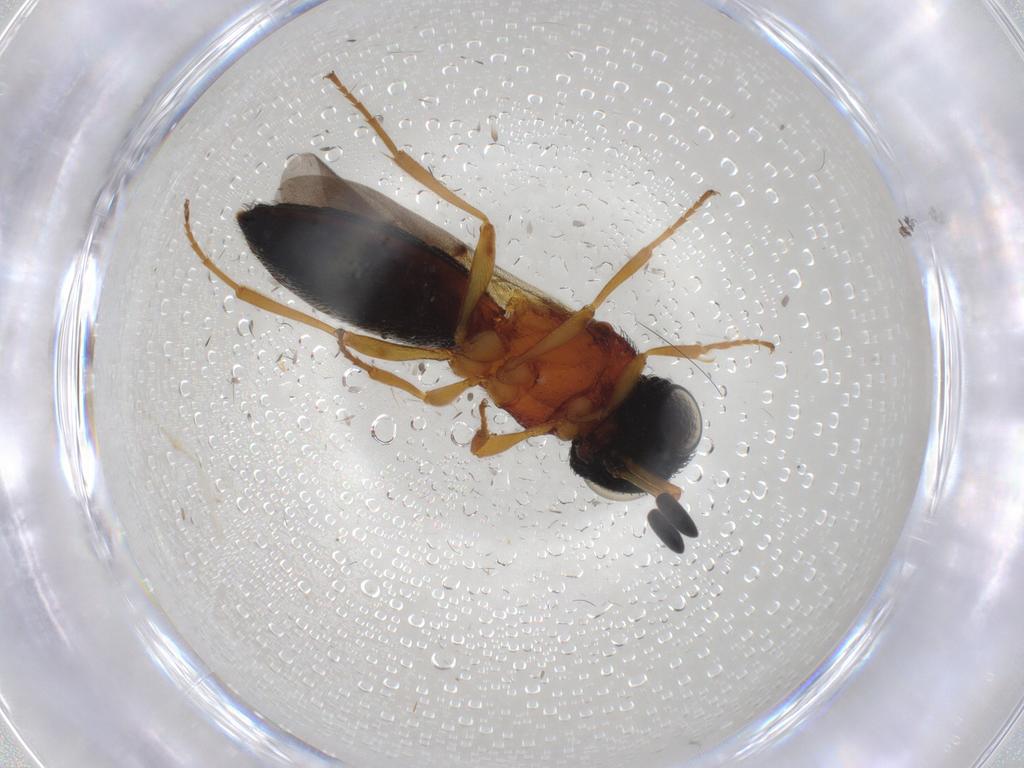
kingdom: Animalia
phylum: Arthropoda
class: Insecta
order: Hymenoptera
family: Scelionidae
